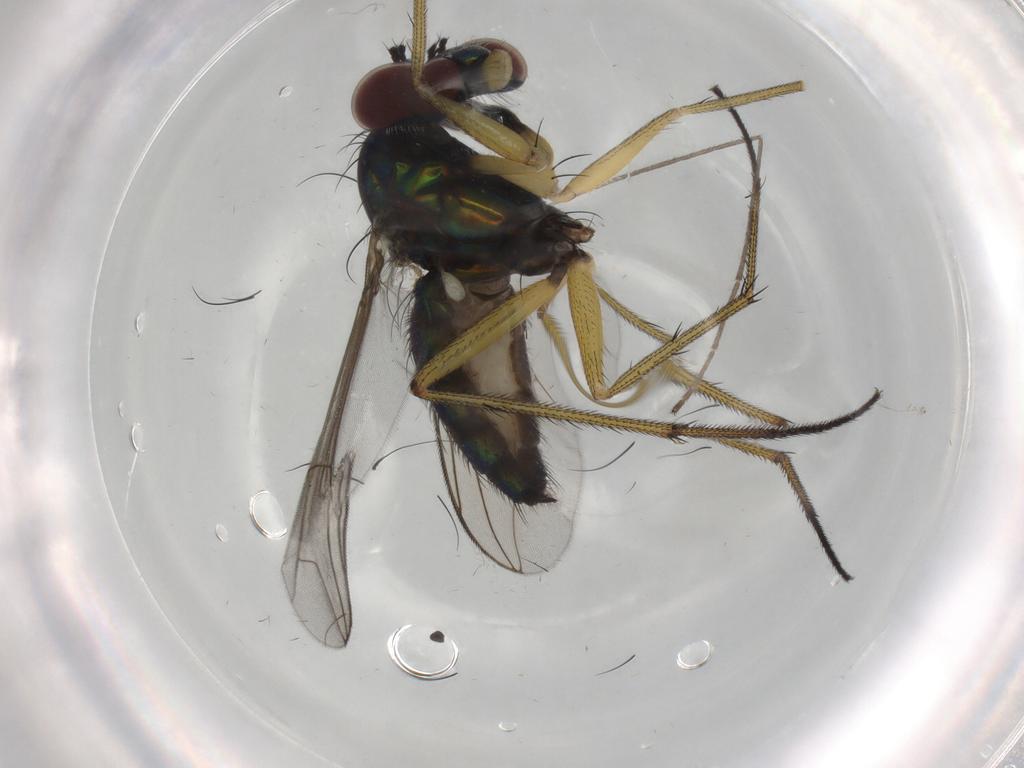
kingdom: Animalia
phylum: Arthropoda
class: Insecta
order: Diptera
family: Dolichopodidae
